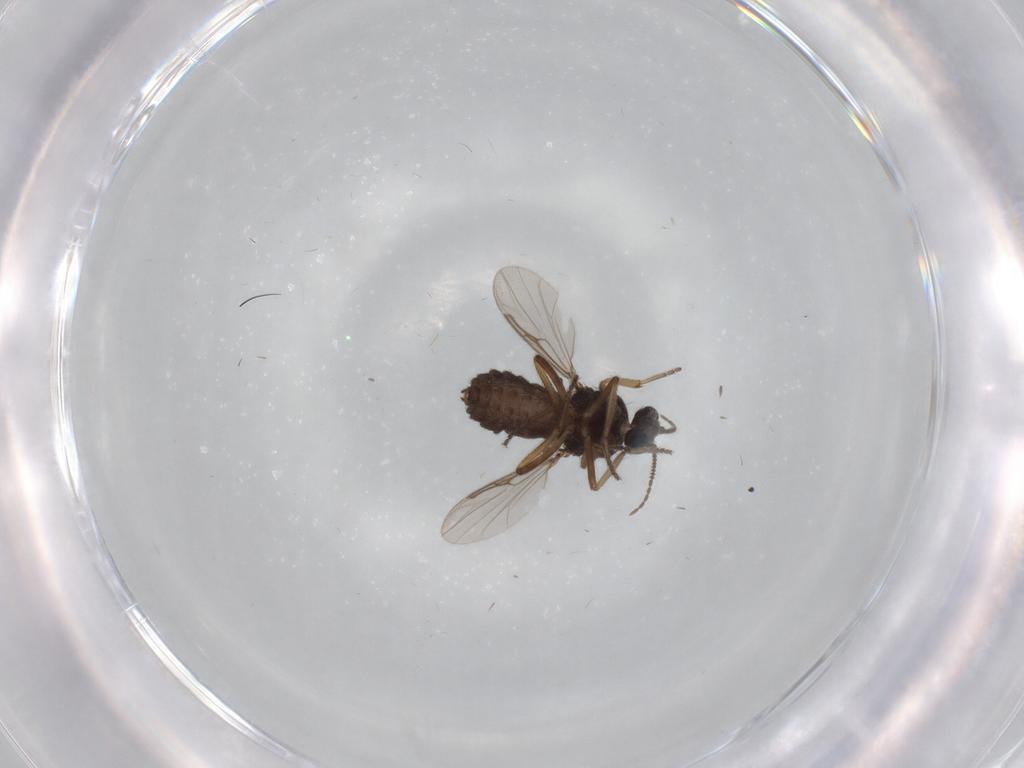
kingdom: Animalia
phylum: Arthropoda
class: Insecta
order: Diptera
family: Ceratopogonidae
